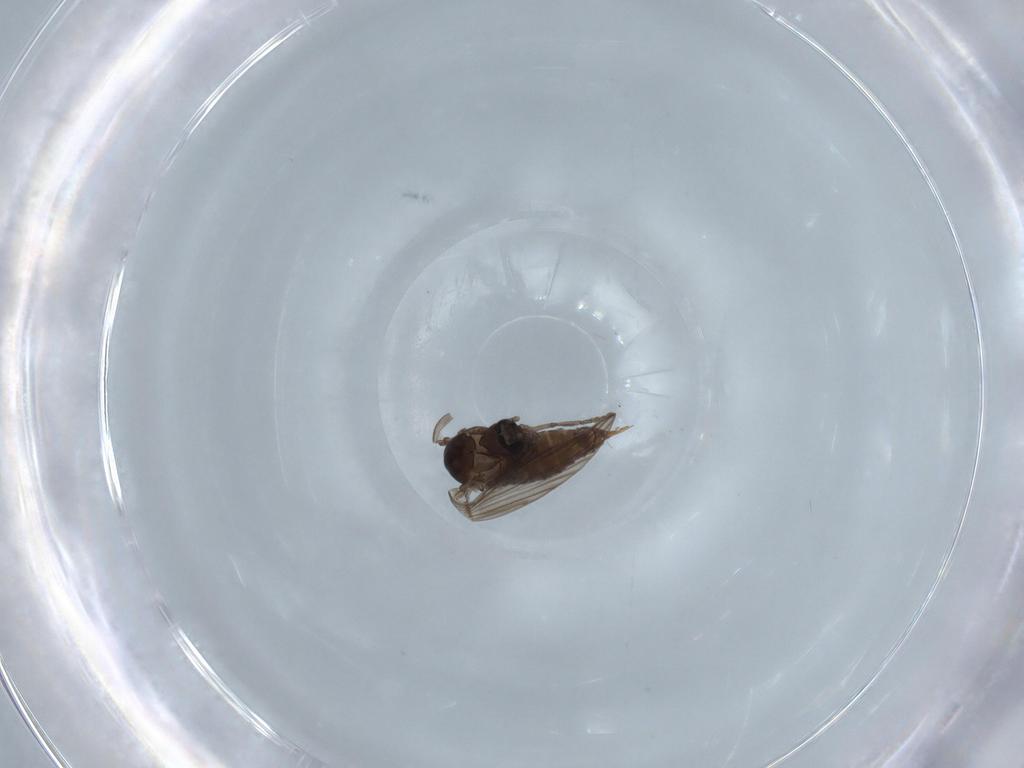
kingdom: Animalia
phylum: Arthropoda
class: Insecta
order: Diptera
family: Psychodidae
